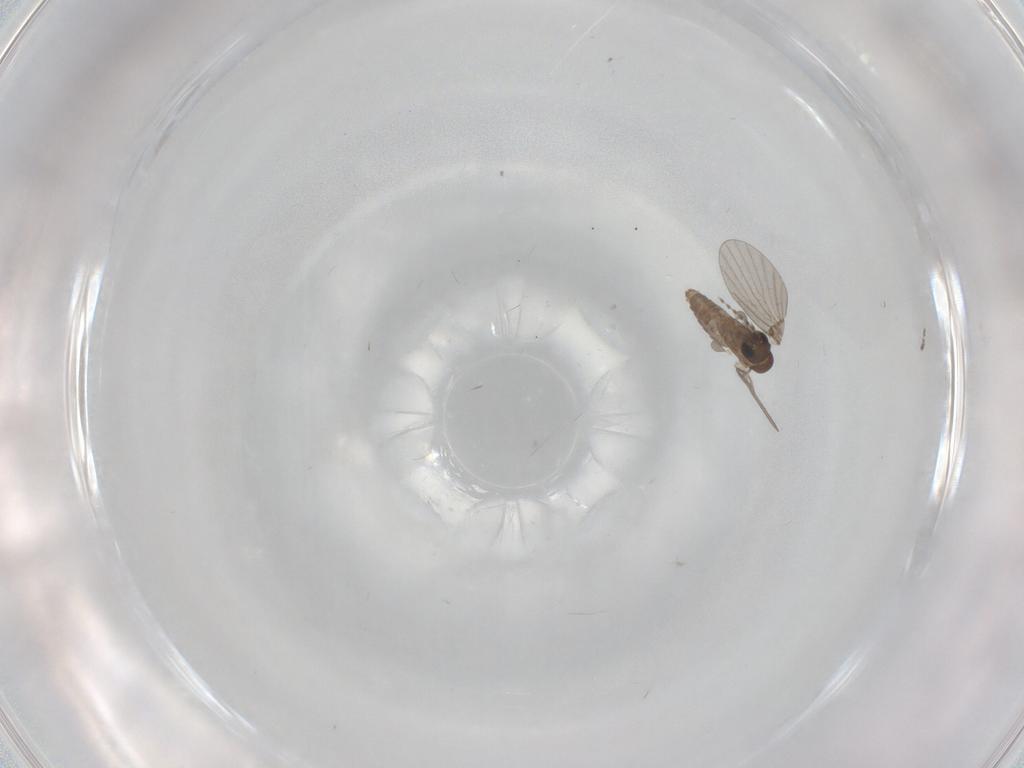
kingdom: Animalia
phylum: Arthropoda
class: Insecta
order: Diptera
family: Cecidomyiidae
